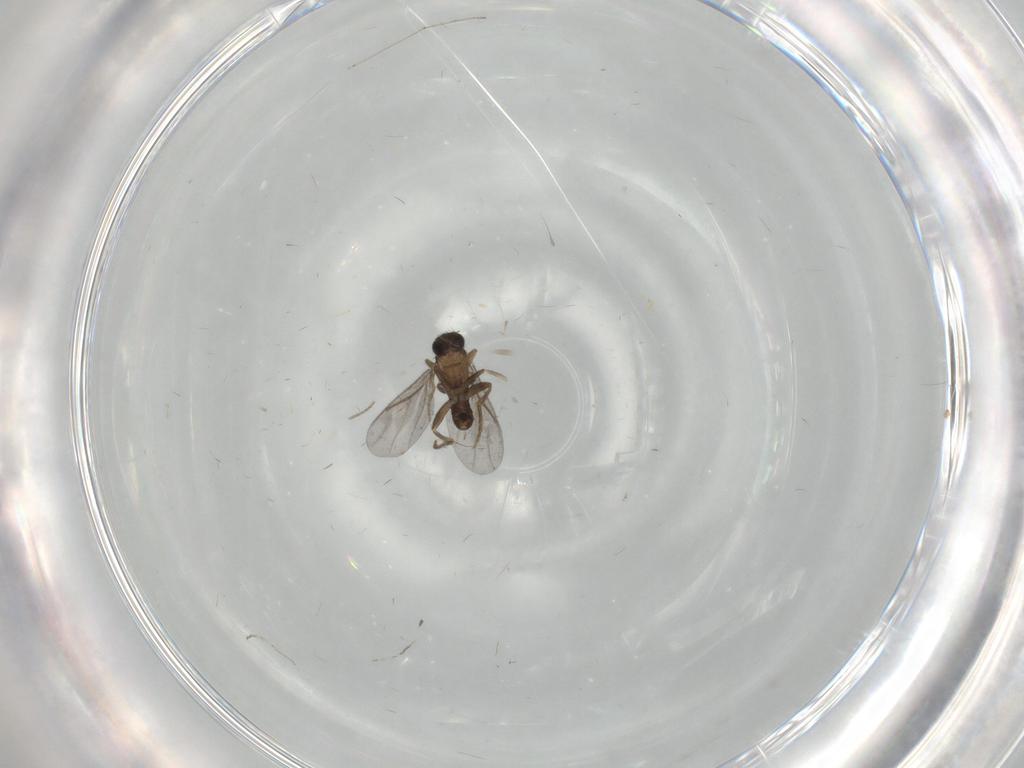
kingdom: Animalia
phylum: Arthropoda
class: Insecta
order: Diptera
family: Cecidomyiidae
